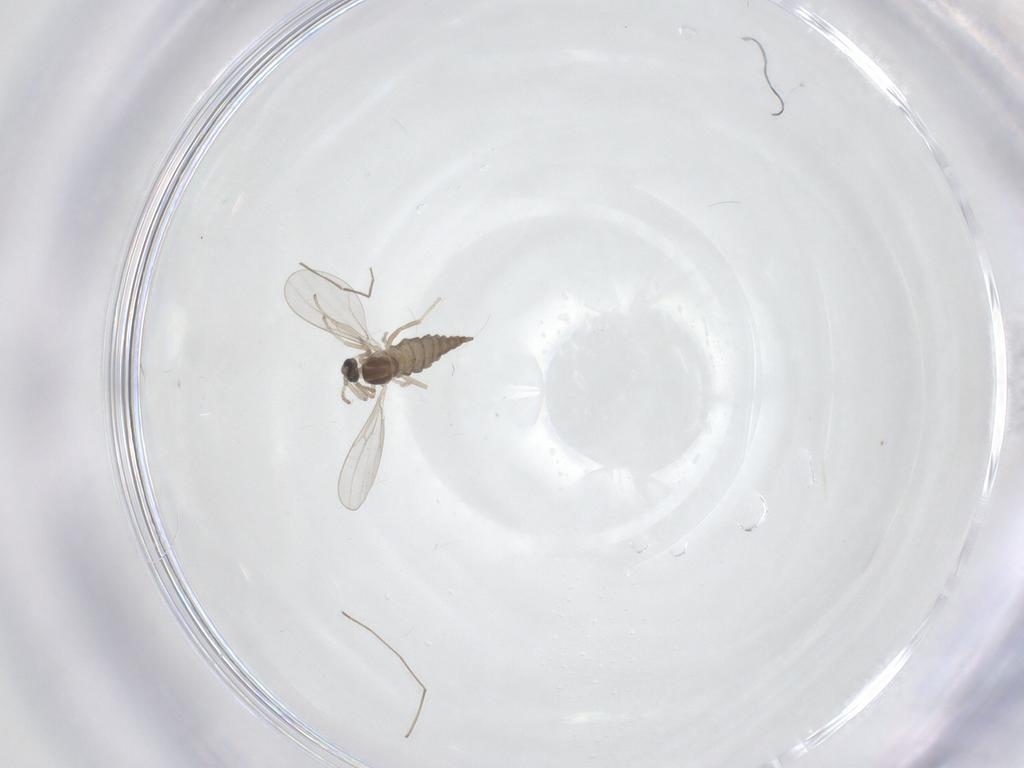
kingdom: Animalia
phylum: Arthropoda
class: Insecta
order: Diptera
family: Cecidomyiidae
